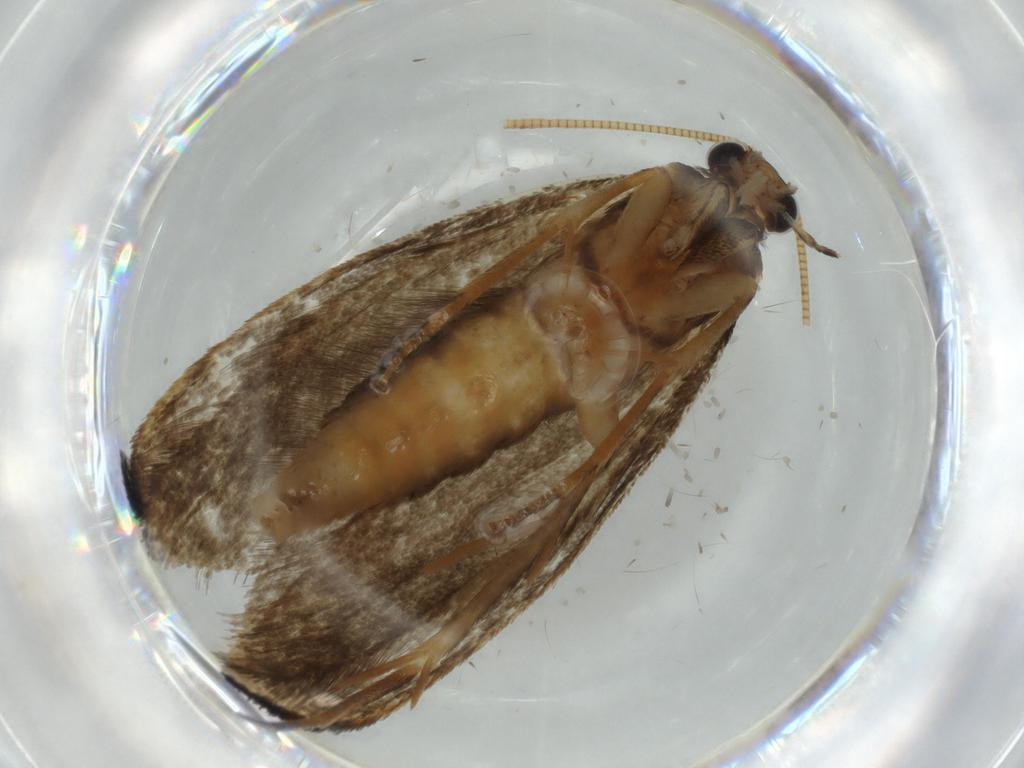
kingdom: Animalia
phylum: Arthropoda
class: Insecta
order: Lepidoptera
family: Tineidae
